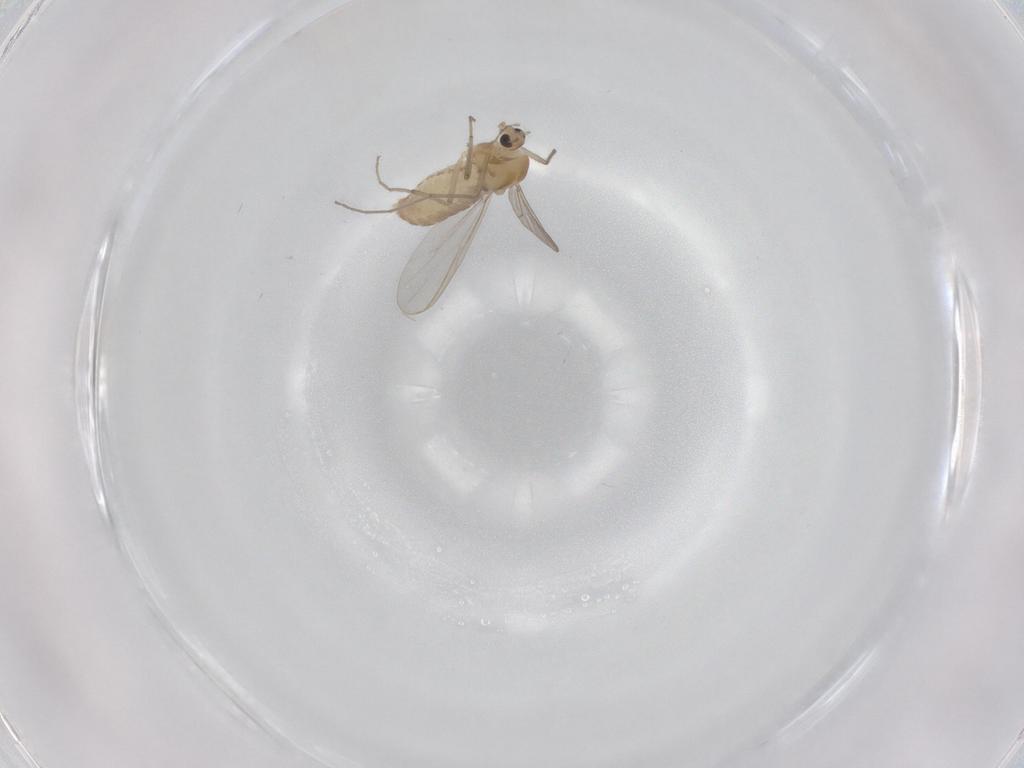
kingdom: Animalia
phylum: Arthropoda
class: Insecta
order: Diptera
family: Chironomidae
